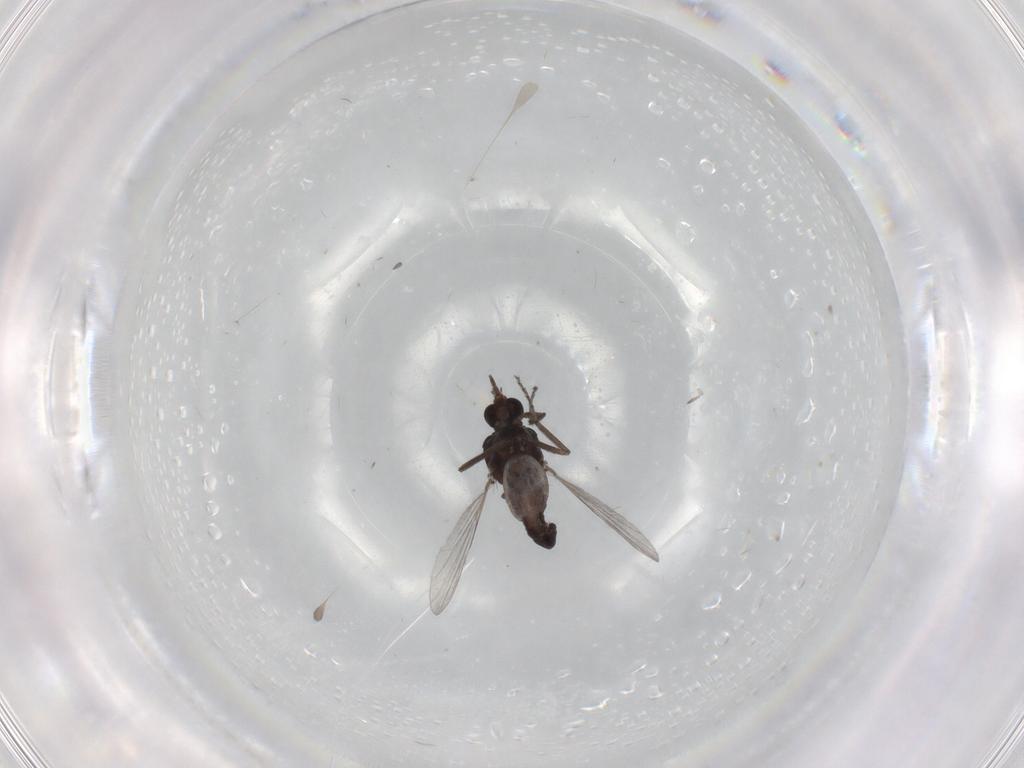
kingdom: Animalia
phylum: Arthropoda
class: Insecta
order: Diptera
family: Ceratopogonidae
